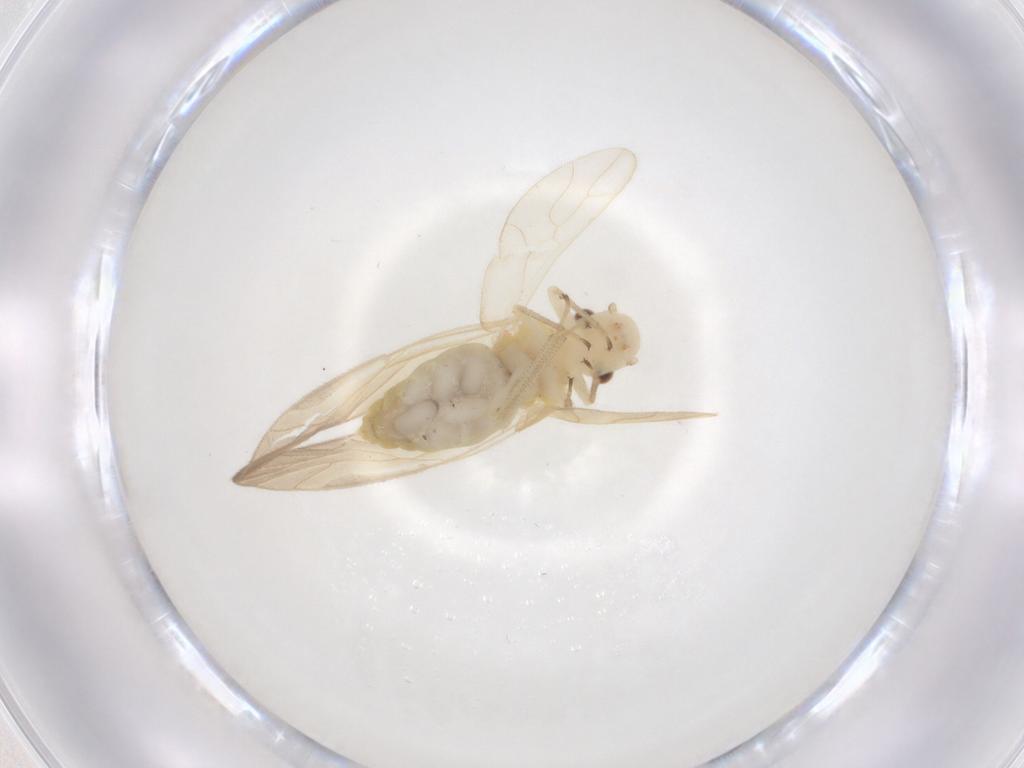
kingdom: Animalia
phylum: Arthropoda
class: Insecta
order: Psocodea
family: Caeciliusidae
